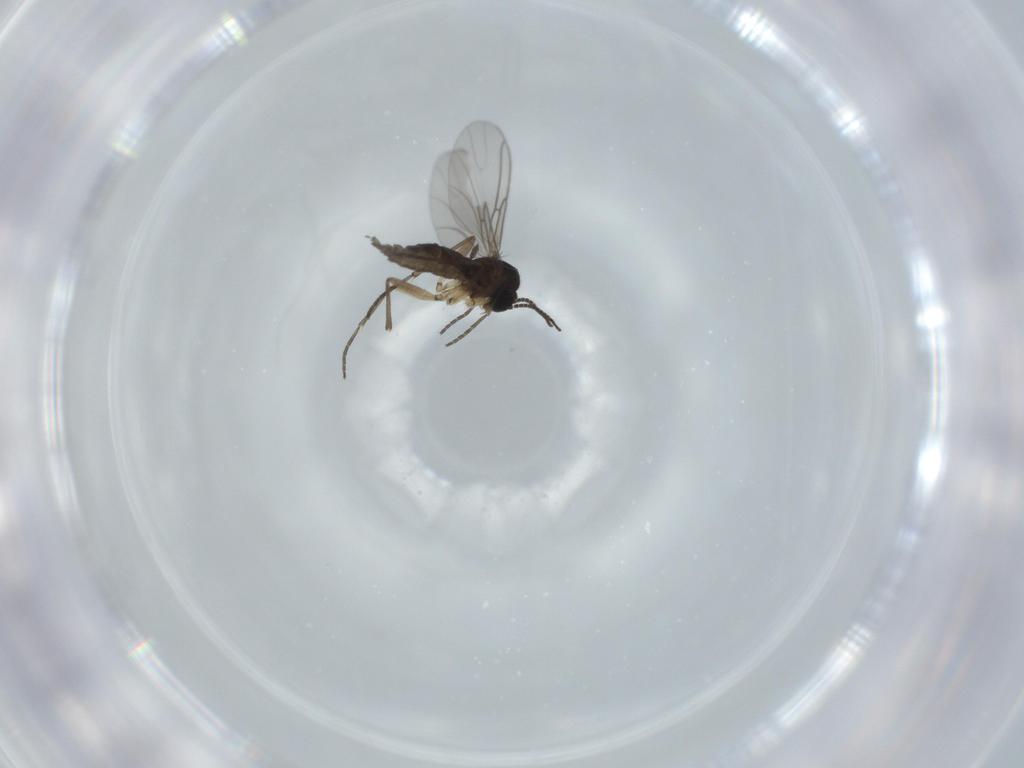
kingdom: Animalia
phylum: Arthropoda
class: Insecta
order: Diptera
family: Sciaridae
